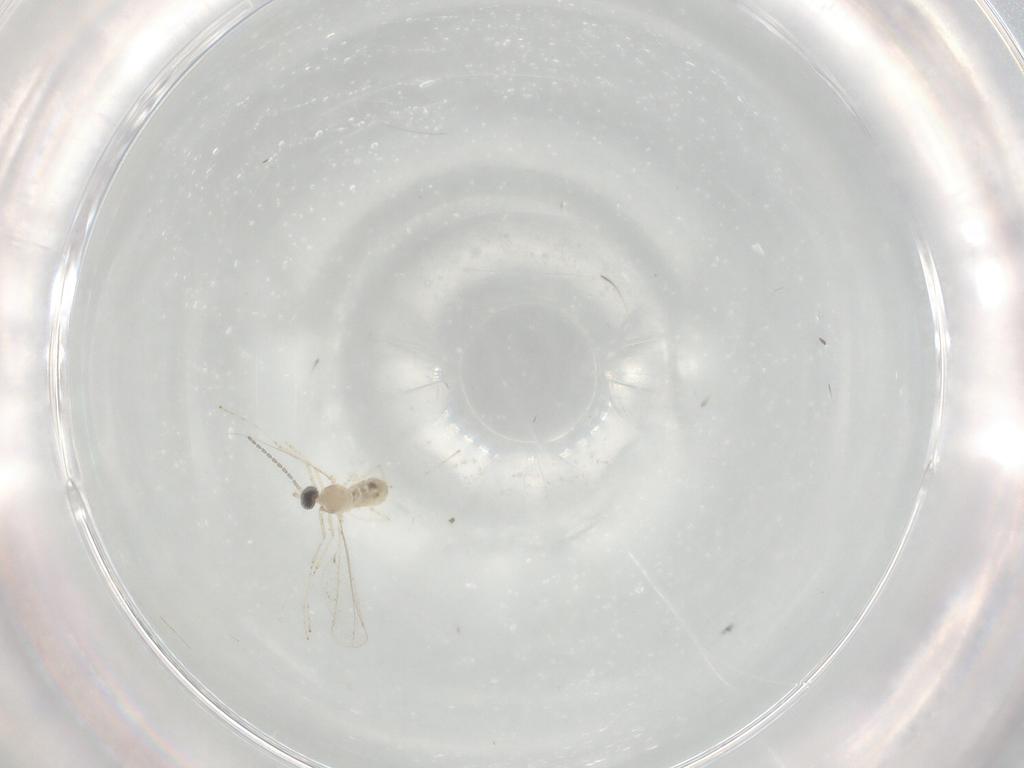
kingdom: Animalia
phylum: Arthropoda
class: Insecta
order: Diptera
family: Cecidomyiidae
